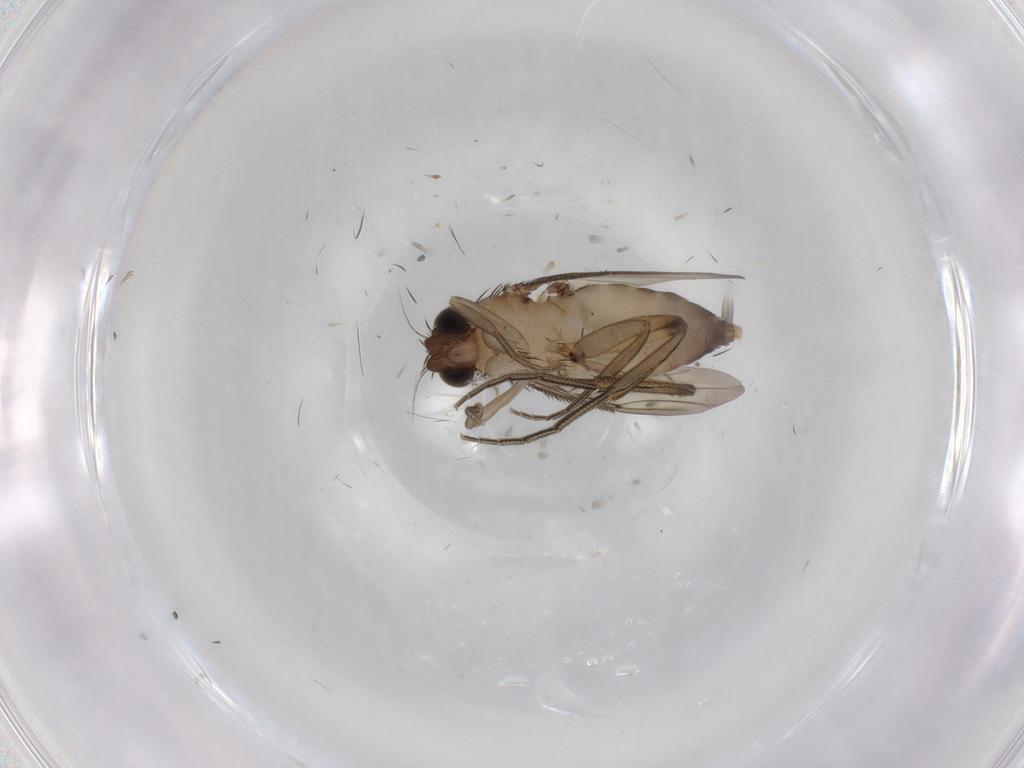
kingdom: Animalia
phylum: Arthropoda
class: Insecta
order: Diptera
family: Cecidomyiidae
